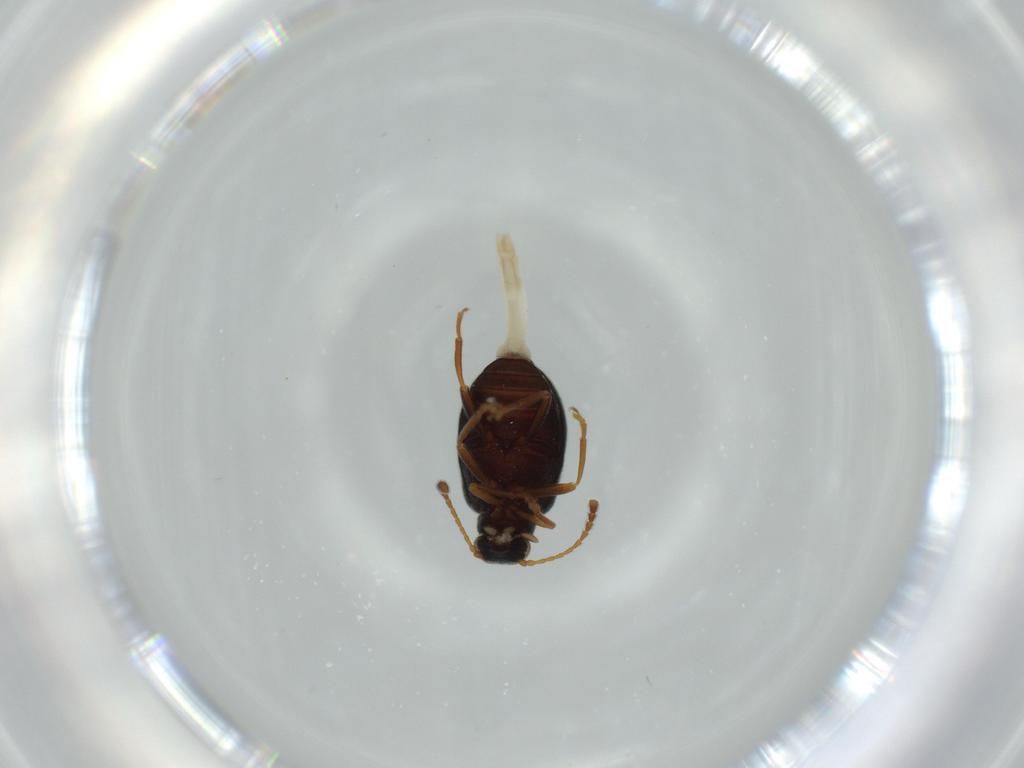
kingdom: Animalia
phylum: Arthropoda
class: Insecta
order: Coleoptera
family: Aderidae
